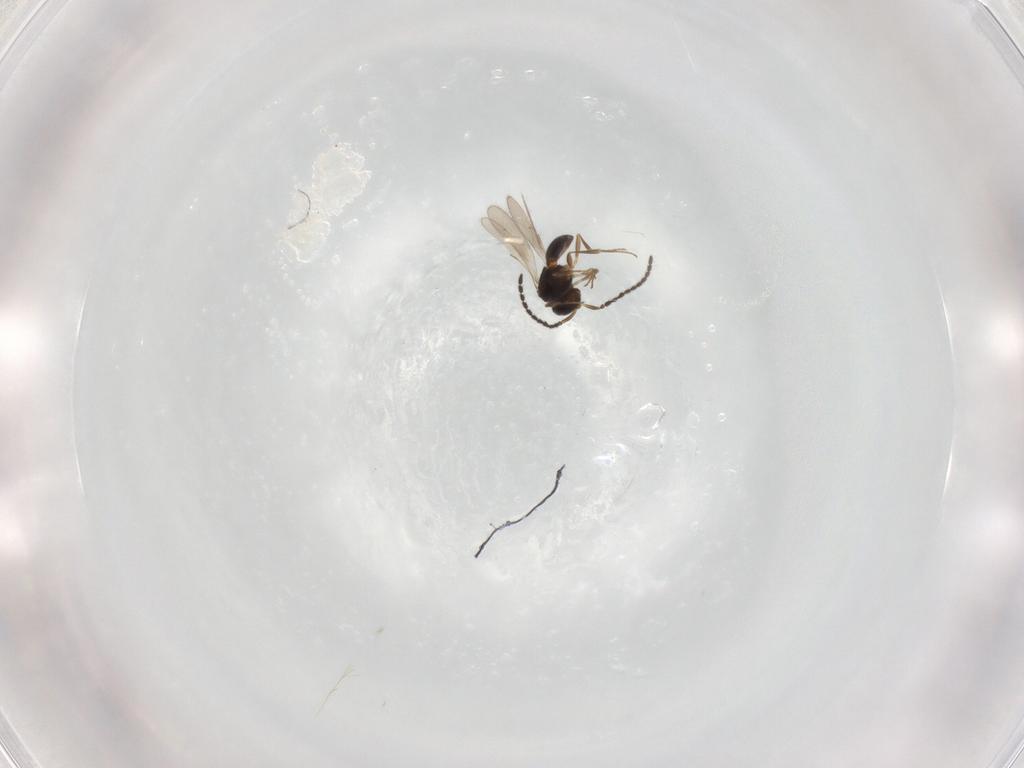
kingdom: Animalia
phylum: Arthropoda
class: Insecta
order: Hymenoptera
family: Scelionidae
